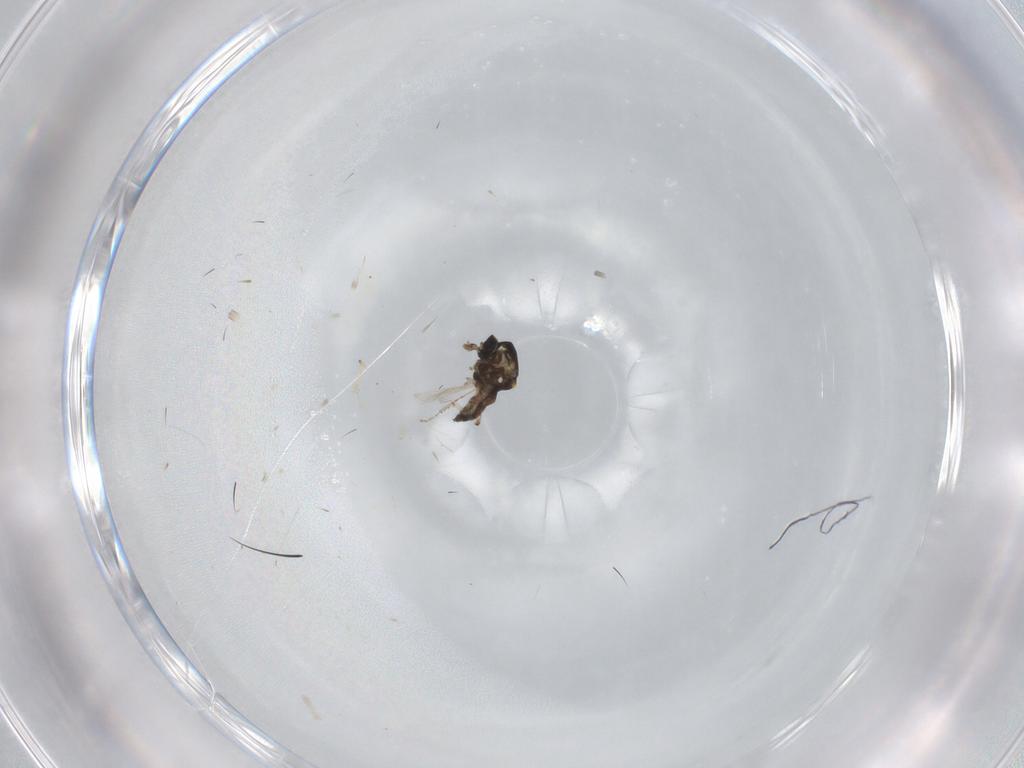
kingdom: Animalia
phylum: Arthropoda
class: Insecta
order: Diptera
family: Ceratopogonidae
